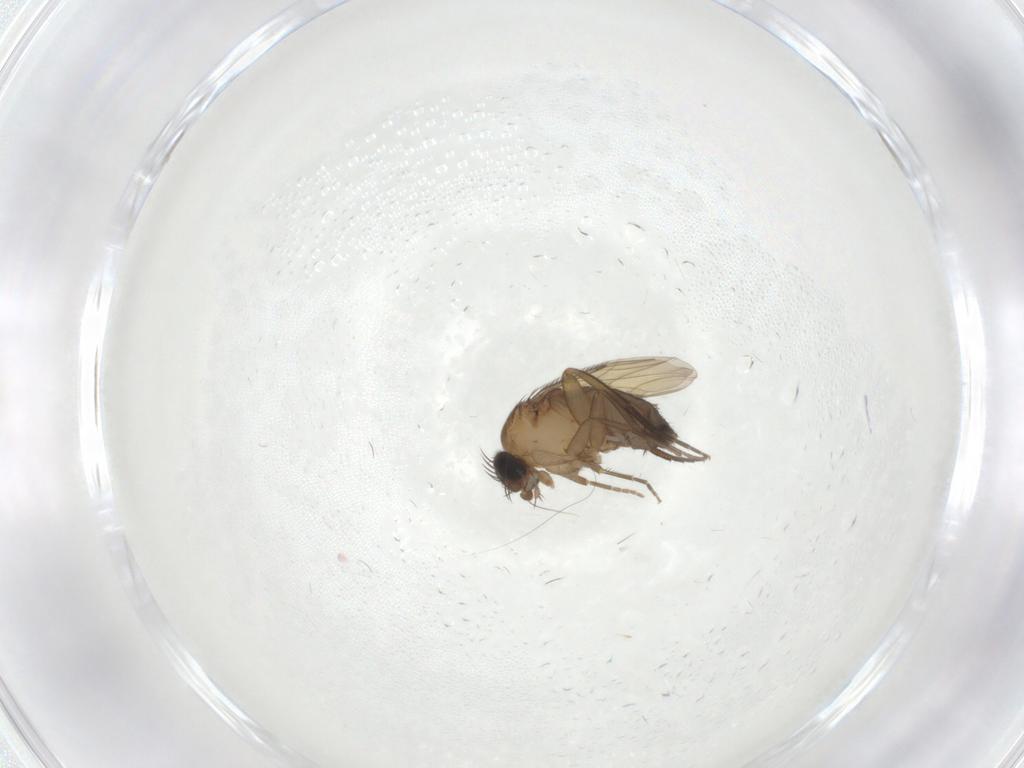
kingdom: Animalia
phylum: Arthropoda
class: Insecta
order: Diptera
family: Phoridae
